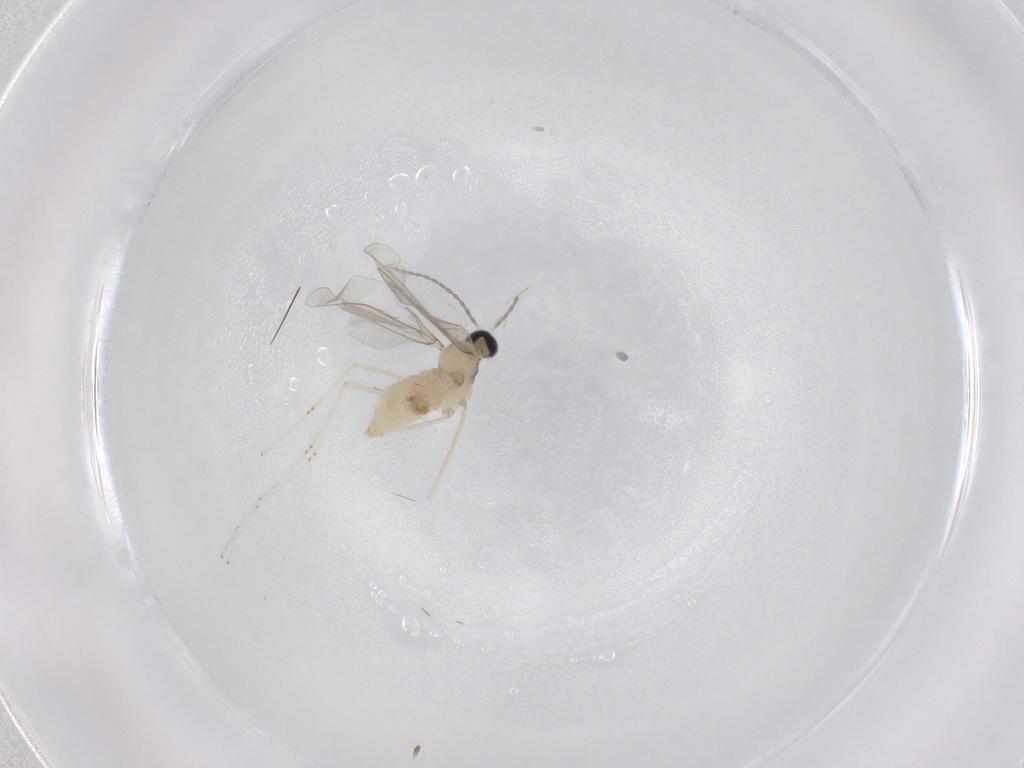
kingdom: Animalia
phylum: Arthropoda
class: Insecta
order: Diptera
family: Cecidomyiidae
